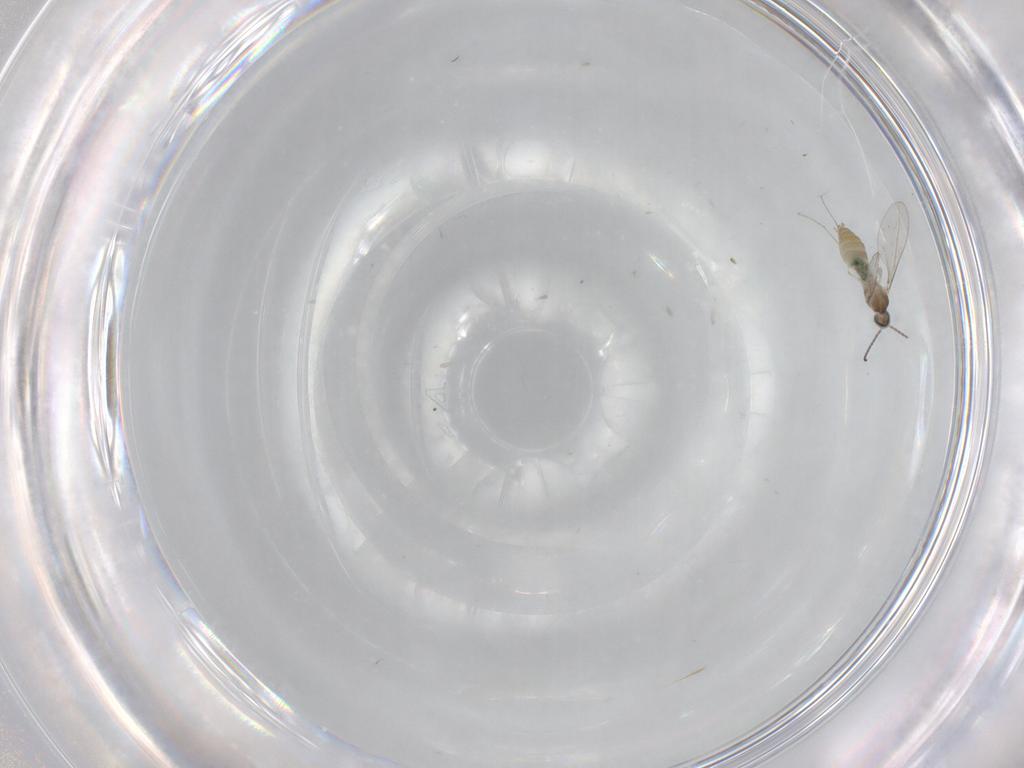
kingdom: Animalia
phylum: Arthropoda
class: Insecta
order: Diptera
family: Cecidomyiidae
